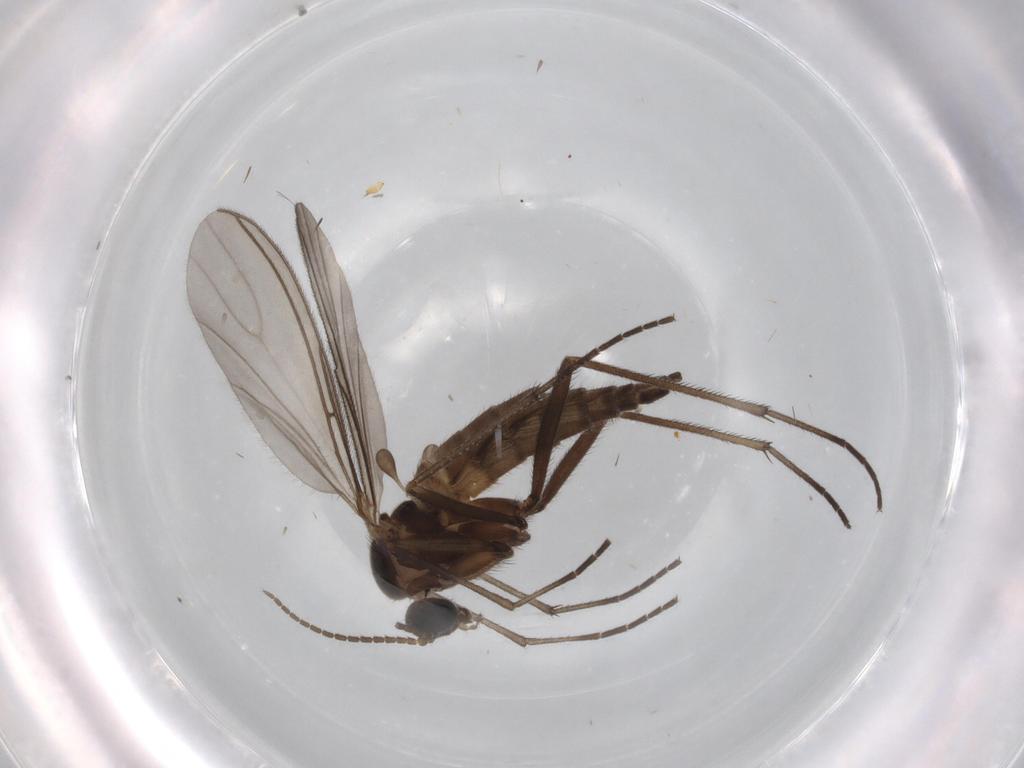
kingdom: Animalia
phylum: Arthropoda
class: Insecta
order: Diptera
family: Sciaridae
